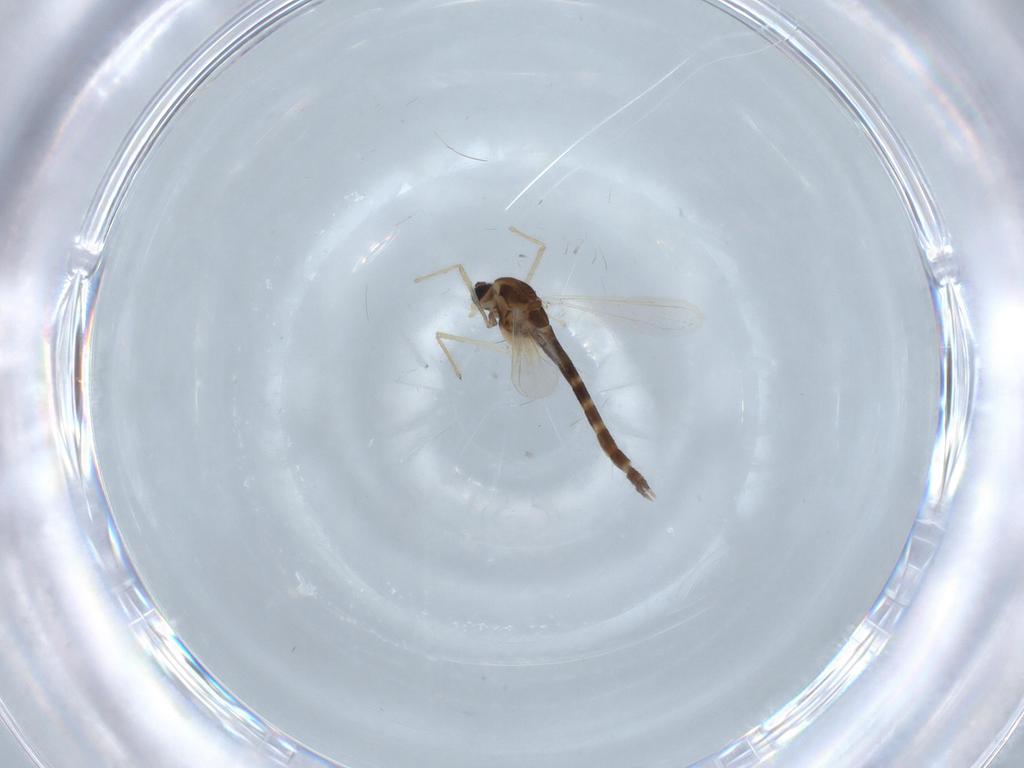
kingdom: Animalia
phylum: Arthropoda
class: Insecta
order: Diptera
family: Chironomidae
